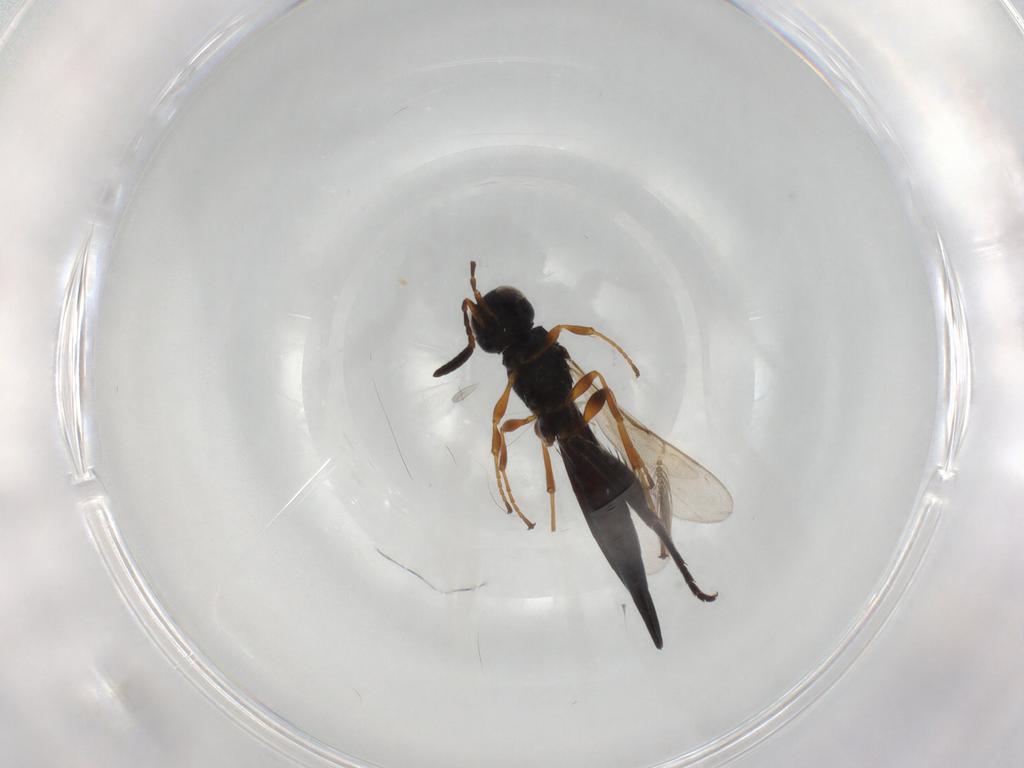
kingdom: Animalia
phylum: Arthropoda
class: Insecta
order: Hymenoptera
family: Scelionidae
